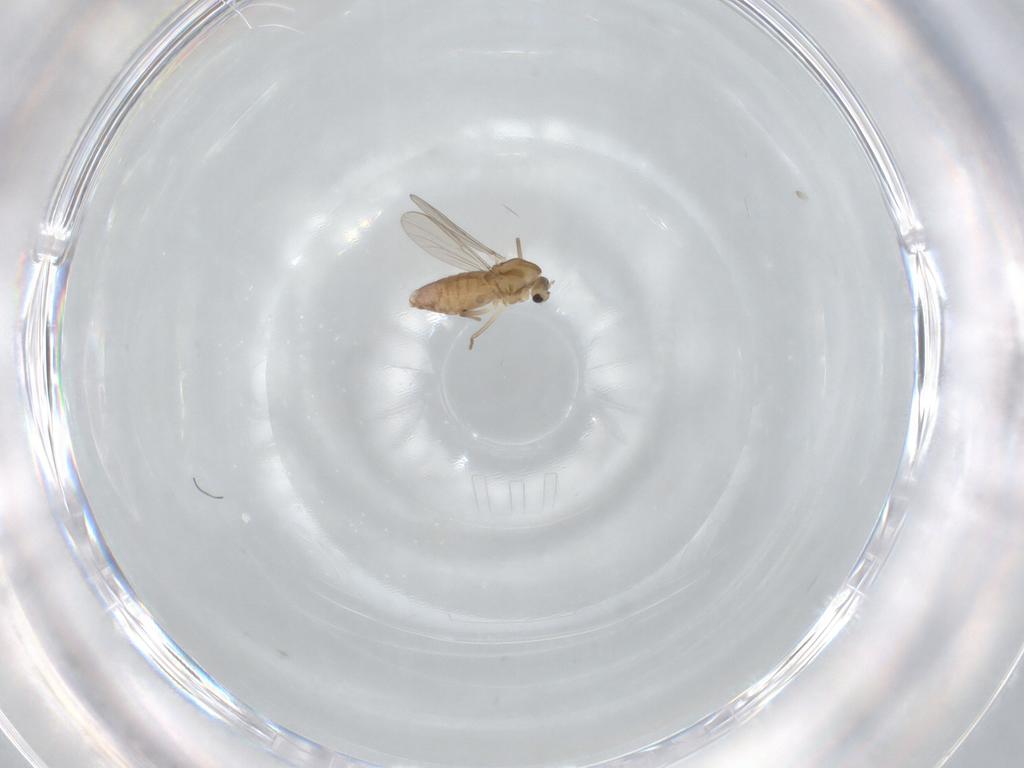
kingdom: Animalia
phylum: Arthropoda
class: Insecta
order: Diptera
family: Chironomidae
